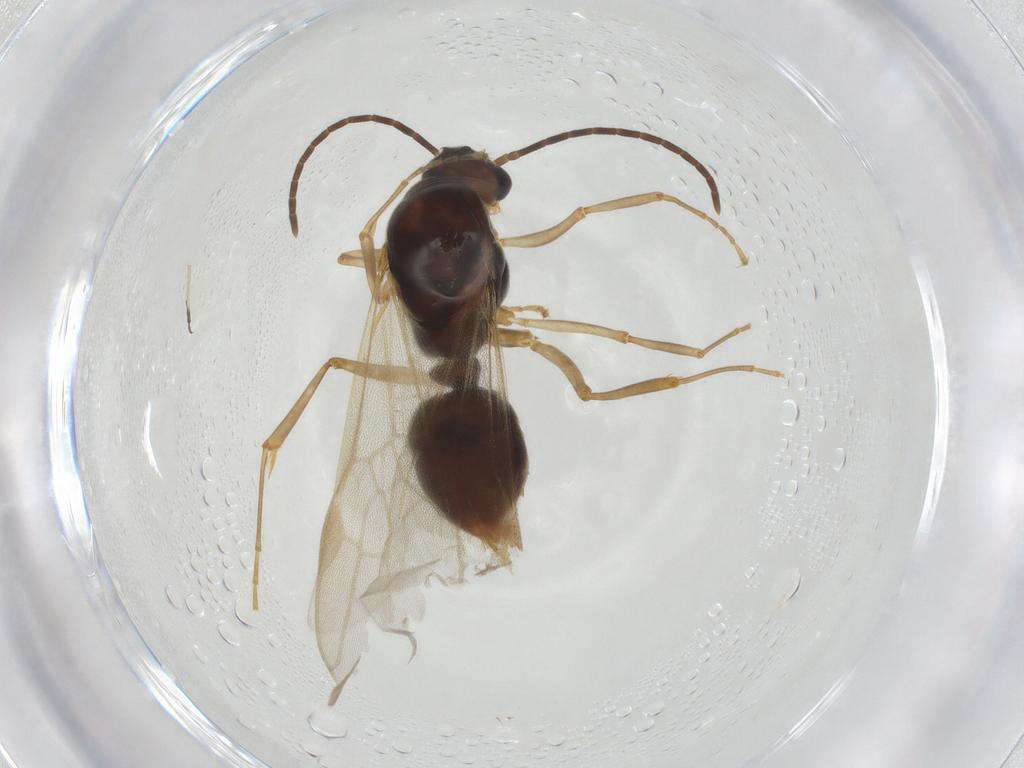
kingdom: Animalia
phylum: Arthropoda
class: Insecta
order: Hymenoptera
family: Formicidae
